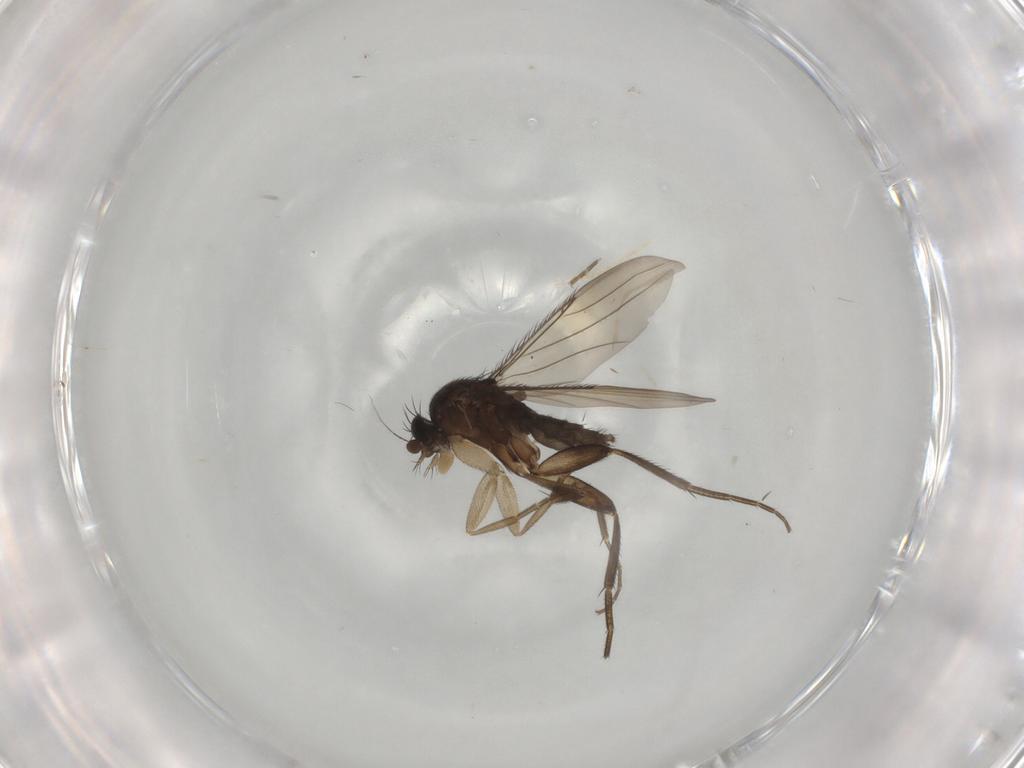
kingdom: Animalia
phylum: Arthropoda
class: Insecta
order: Diptera
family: Phoridae
